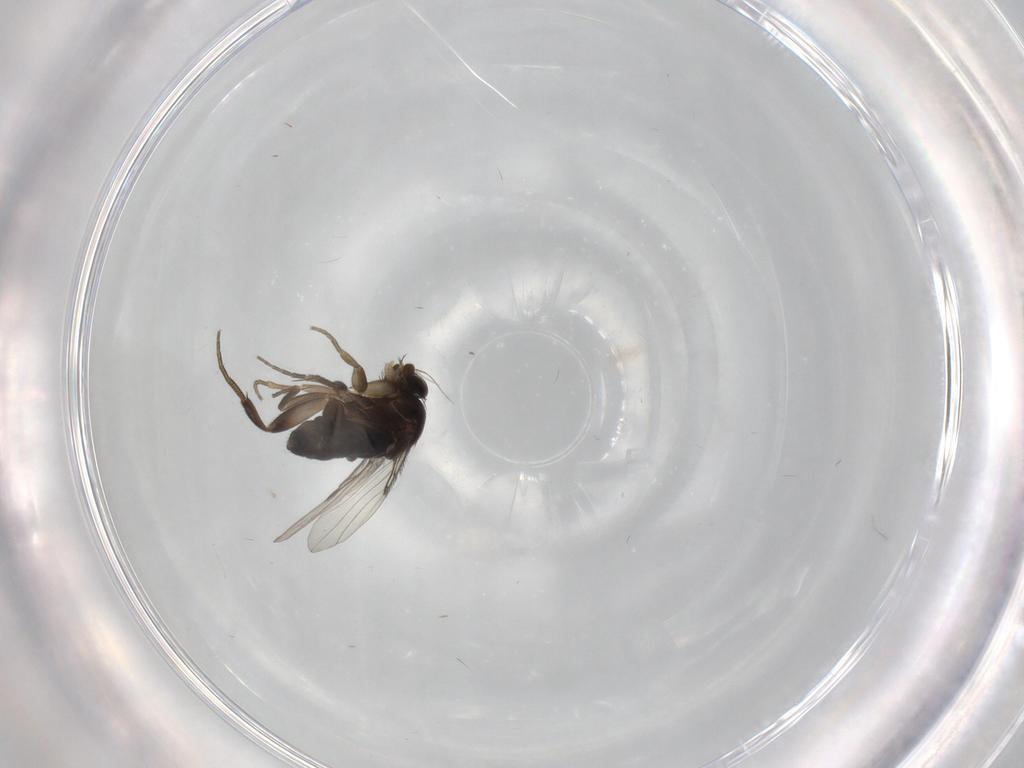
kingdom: Animalia
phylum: Arthropoda
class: Insecta
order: Diptera
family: Phoridae
